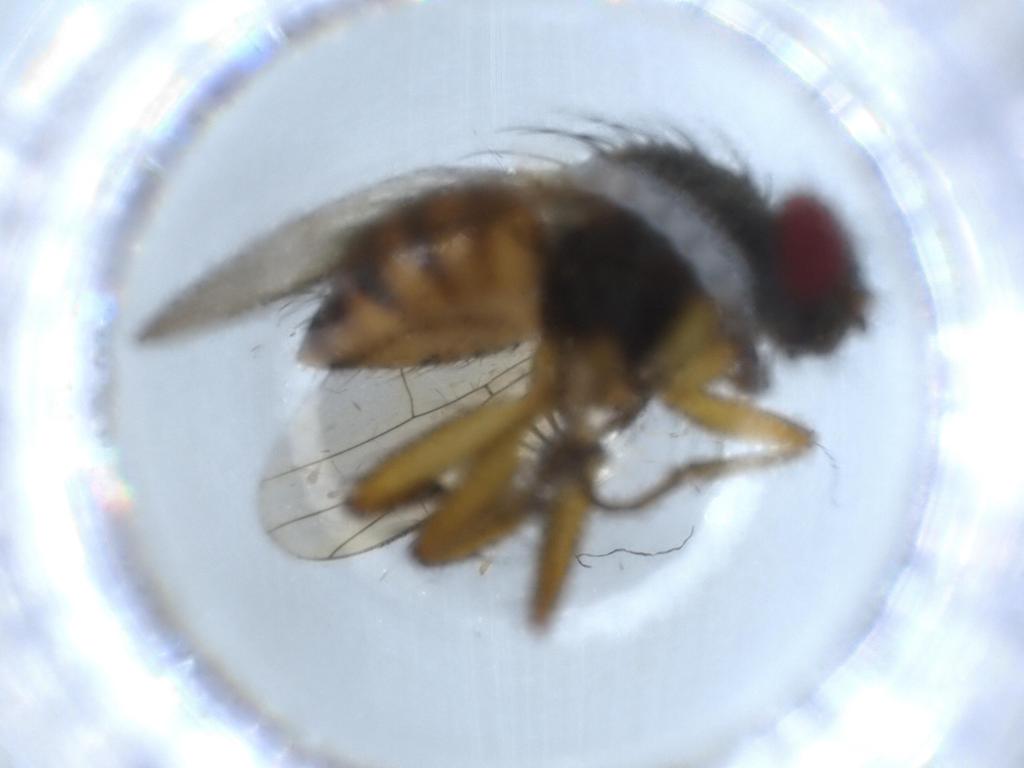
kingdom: Animalia
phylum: Arthropoda
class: Insecta
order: Diptera
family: Muscidae
